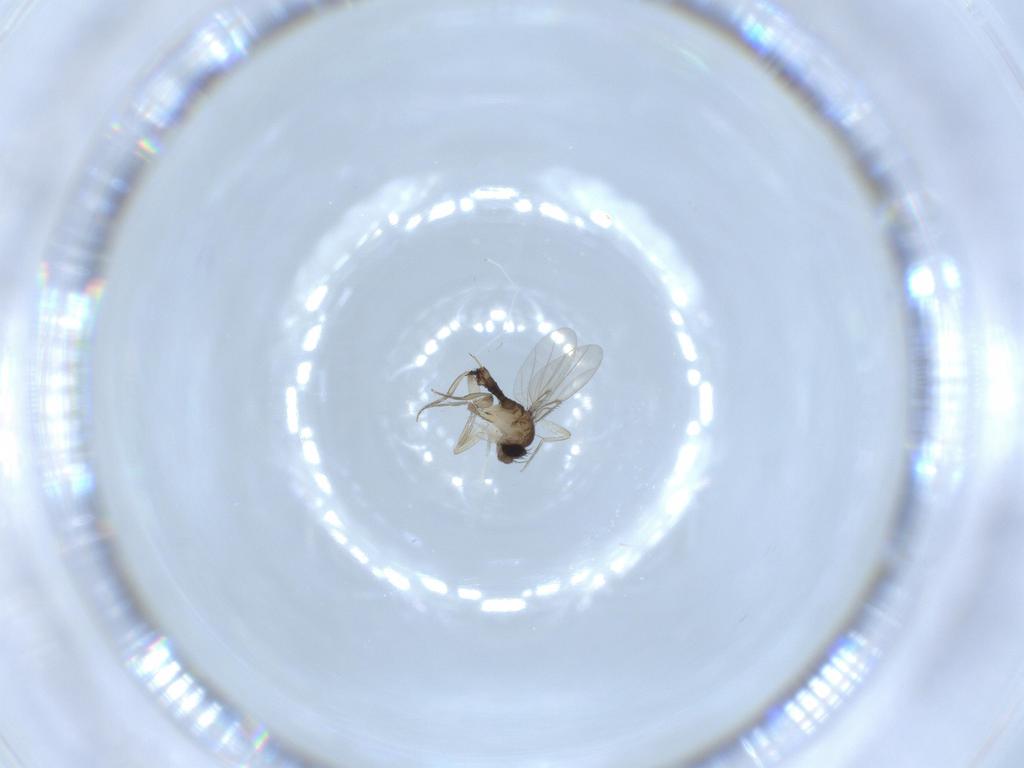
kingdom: Animalia
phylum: Arthropoda
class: Insecta
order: Diptera
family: Phoridae
